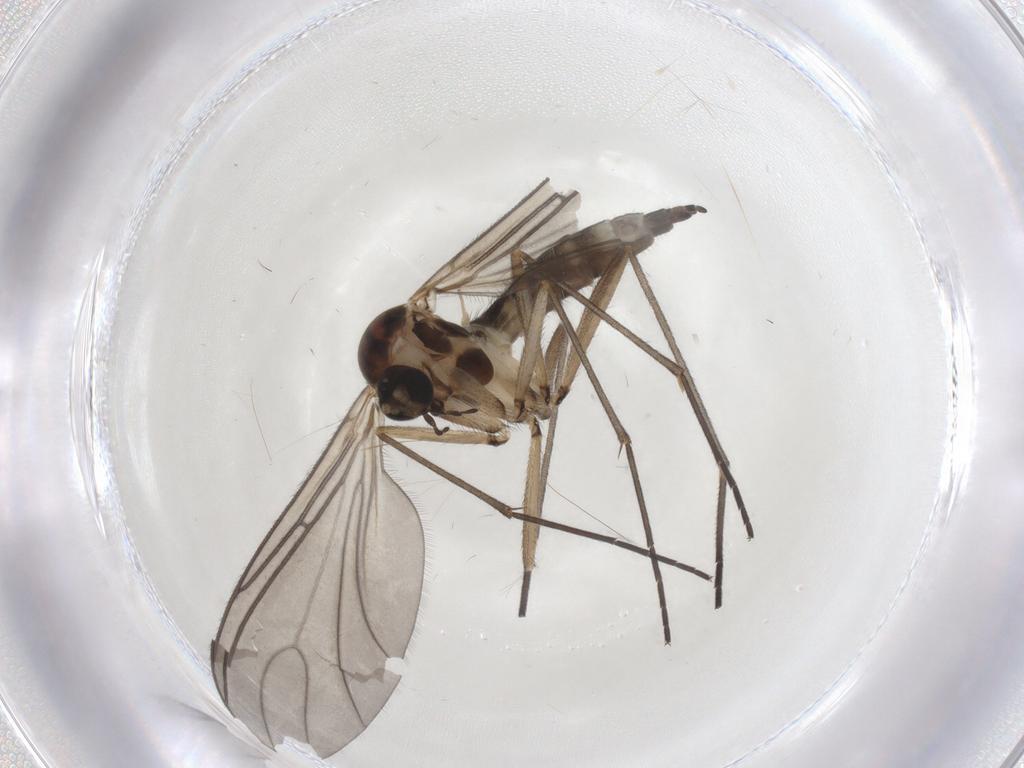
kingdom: Animalia
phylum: Arthropoda
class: Insecta
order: Diptera
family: Sciaridae
